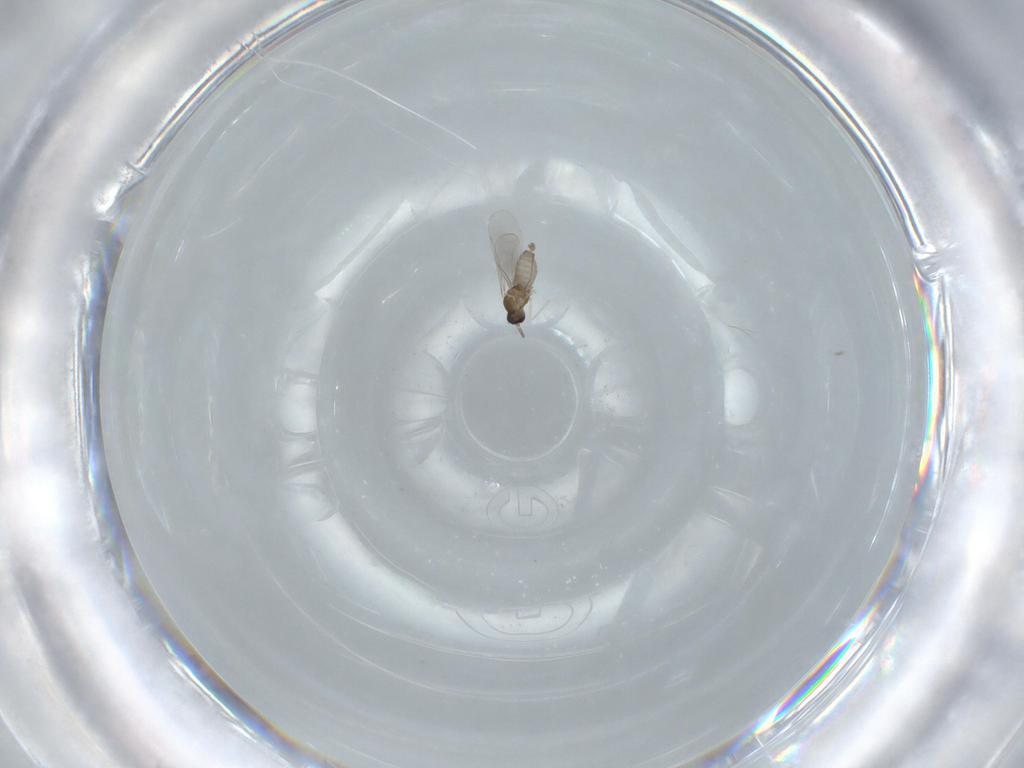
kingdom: Animalia
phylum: Arthropoda
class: Insecta
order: Diptera
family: Cecidomyiidae
